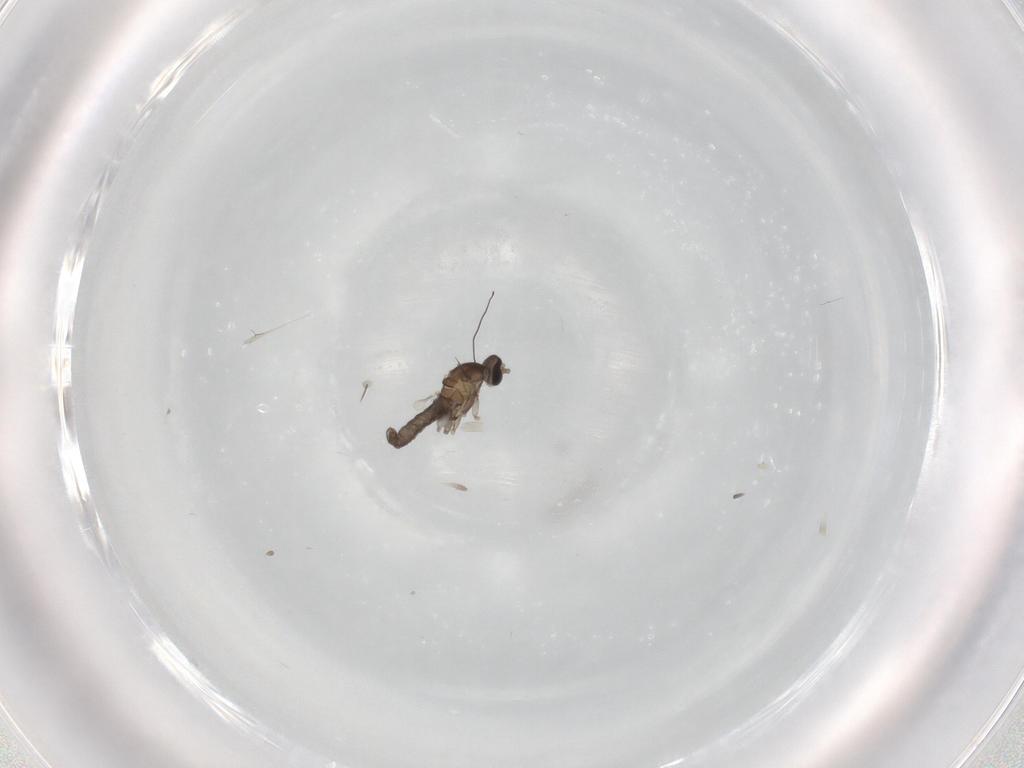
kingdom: Animalia
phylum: Arthropoda
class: Insecta
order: Diptera
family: Cecidomyiidae
